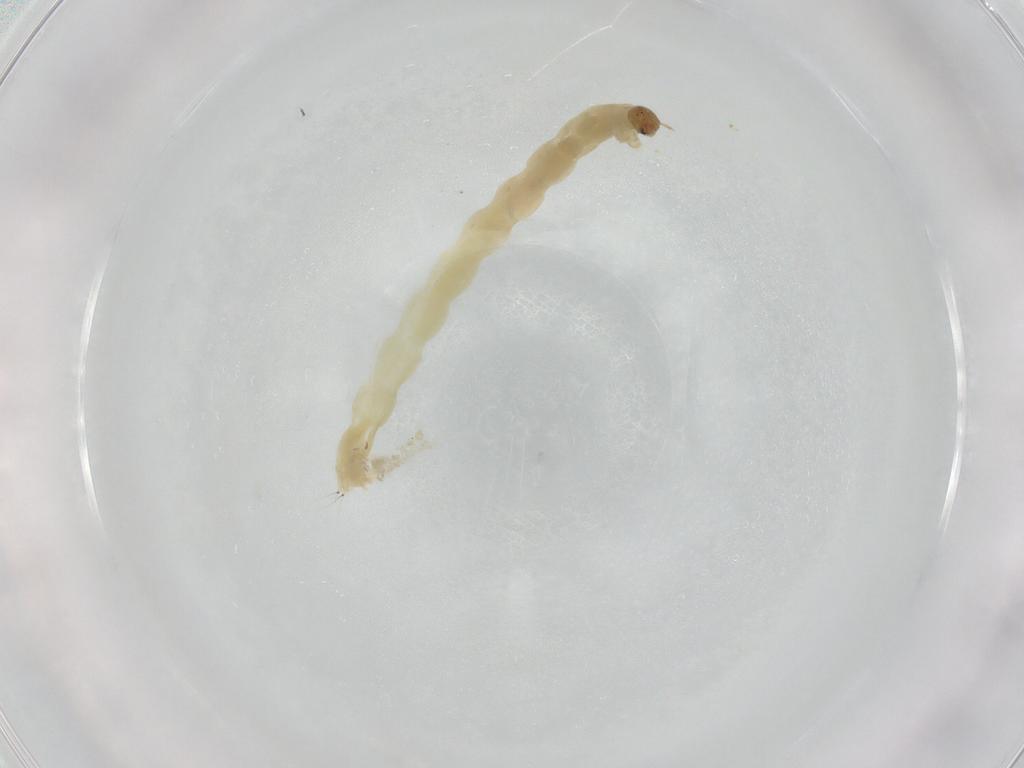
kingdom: Animalia
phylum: Arthropoda
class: Insecta
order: Diptera
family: Chironomidae
